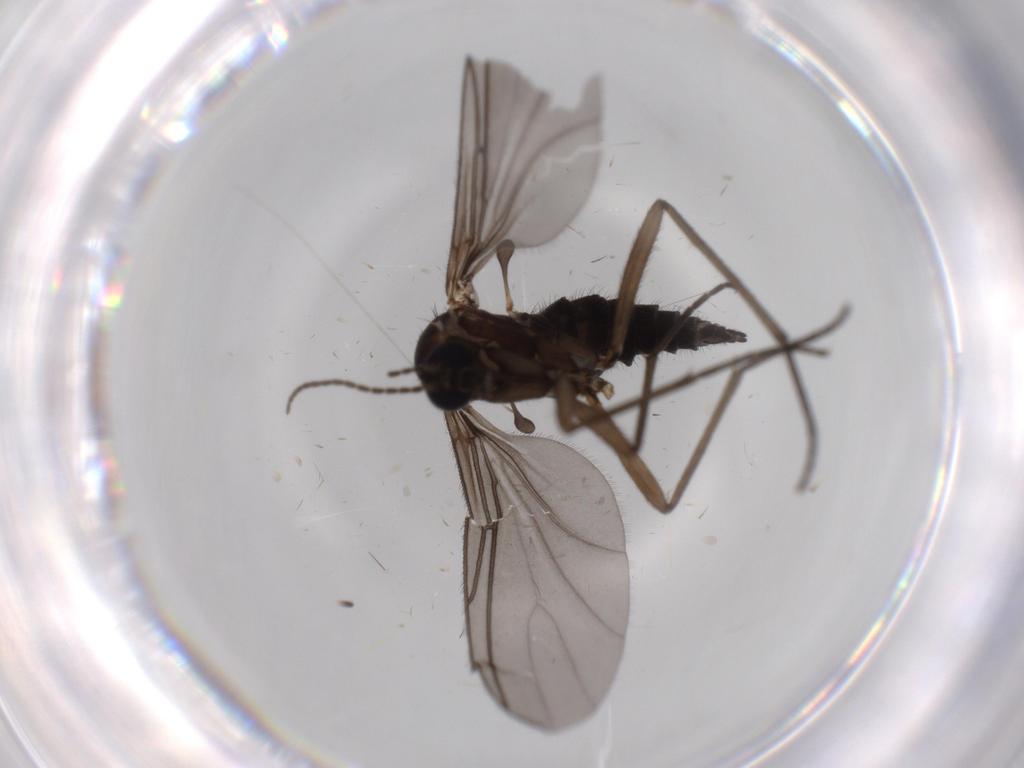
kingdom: Animalia
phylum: Arthropoda
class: Insecta
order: Diptera
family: Sciaridae
